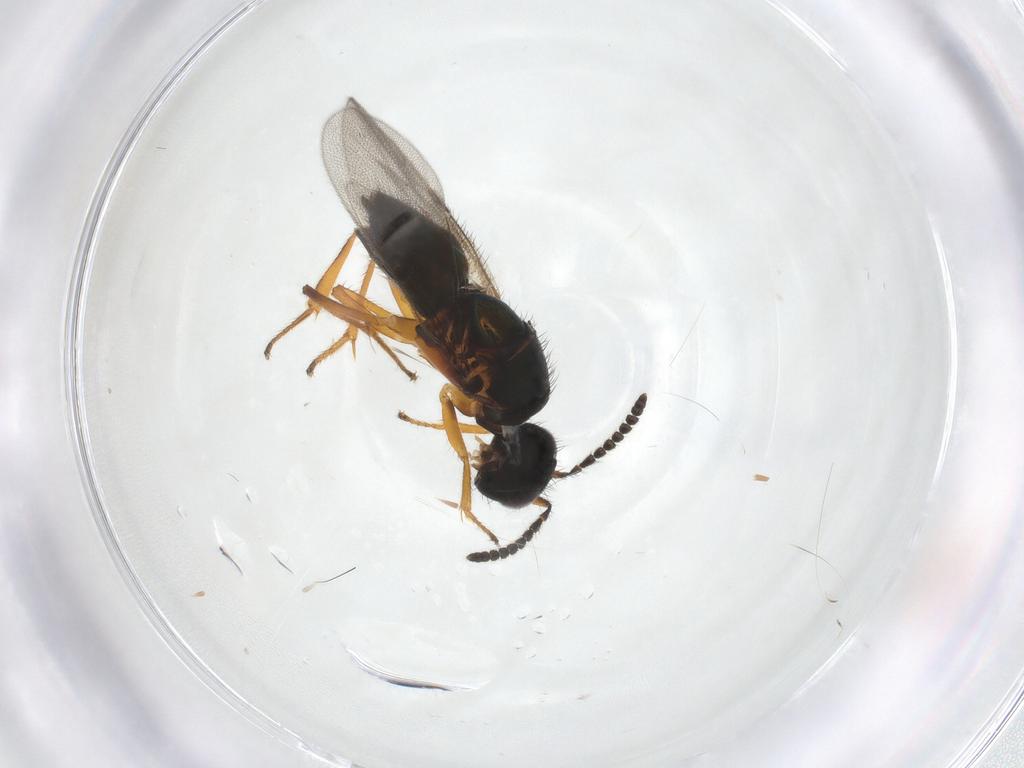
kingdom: Animalia
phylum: Arthropoda
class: Insecta
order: Hymenoptera
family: Encyrtidae
